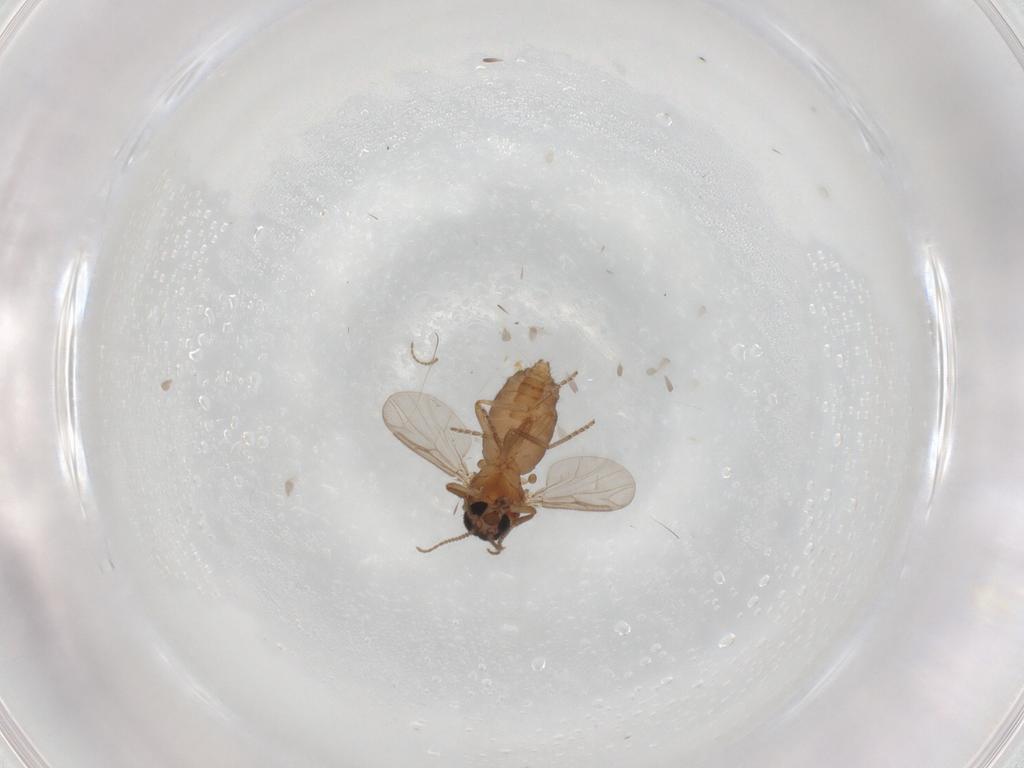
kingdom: Animalia
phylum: Arthropoda
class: Insecta
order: Diptera
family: Ceratopogonidae
